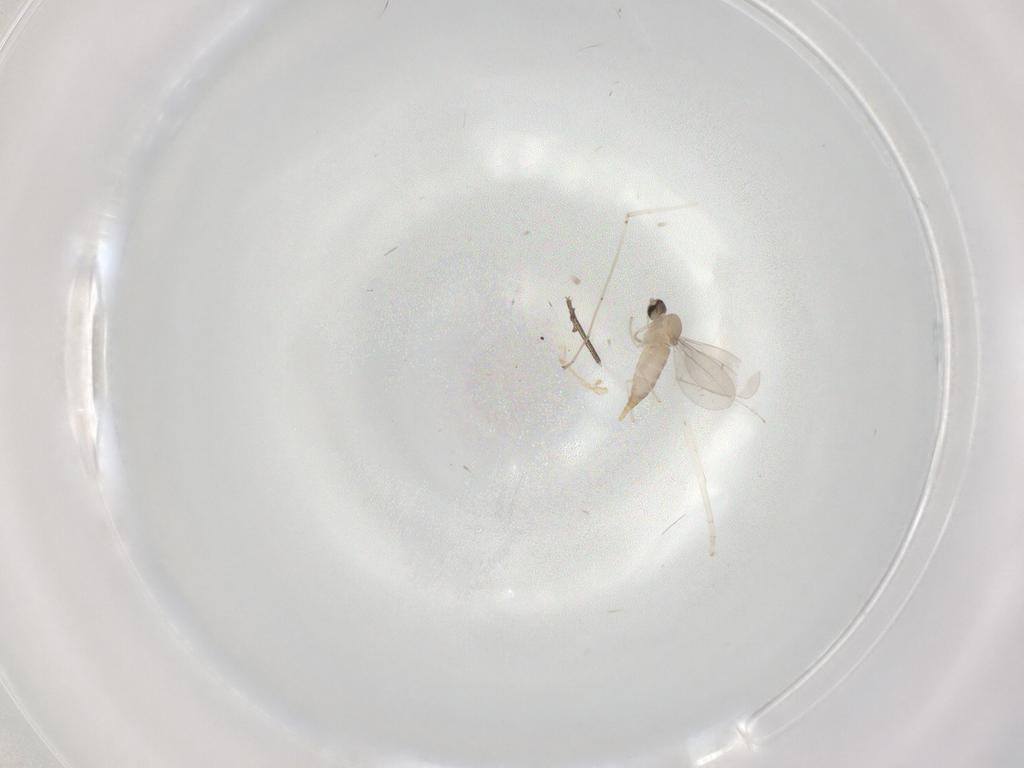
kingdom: Animalia
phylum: Arthropoda
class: Insecta
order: Diptera
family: Cecidomyiidae
